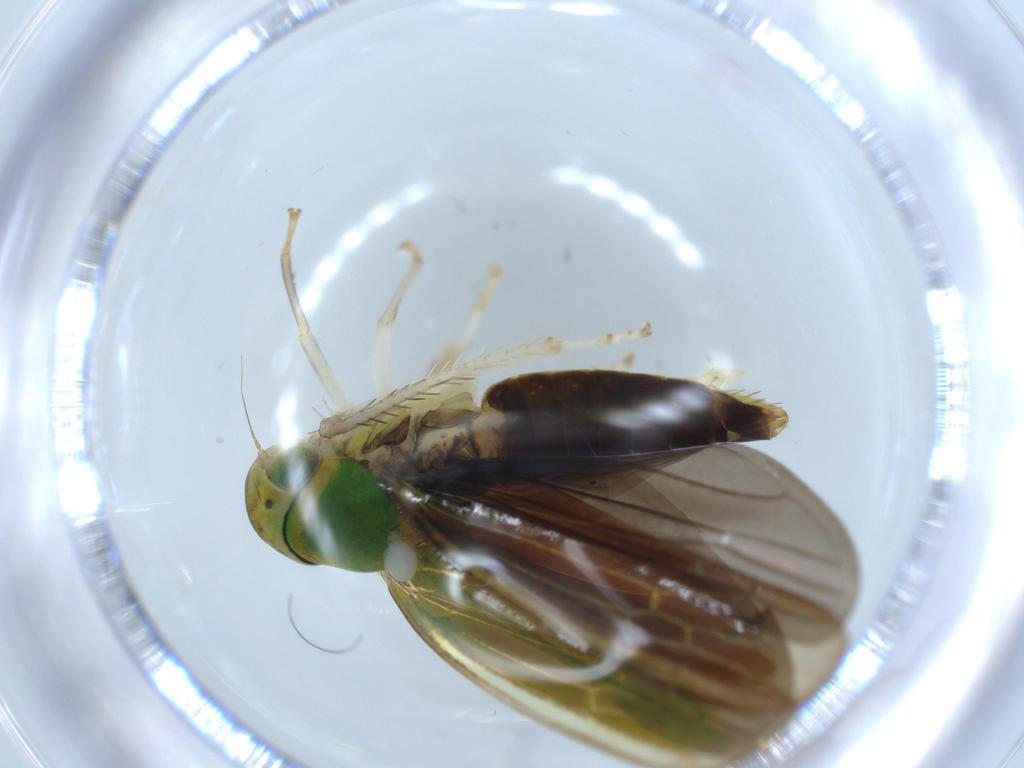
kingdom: Animalia
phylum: Arthropoda
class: Insecta
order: Hemiptera
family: Cicadellidae
